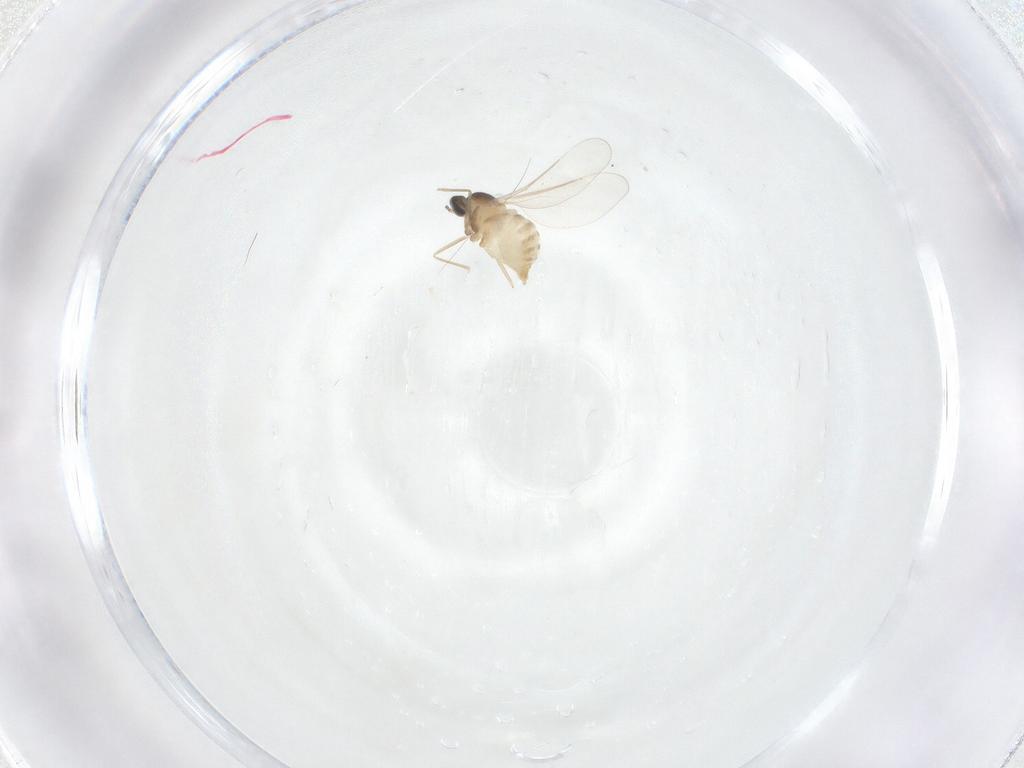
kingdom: Animalia
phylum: Arthropoda
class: Insecta
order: Diptera
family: Cecidomyiidae
